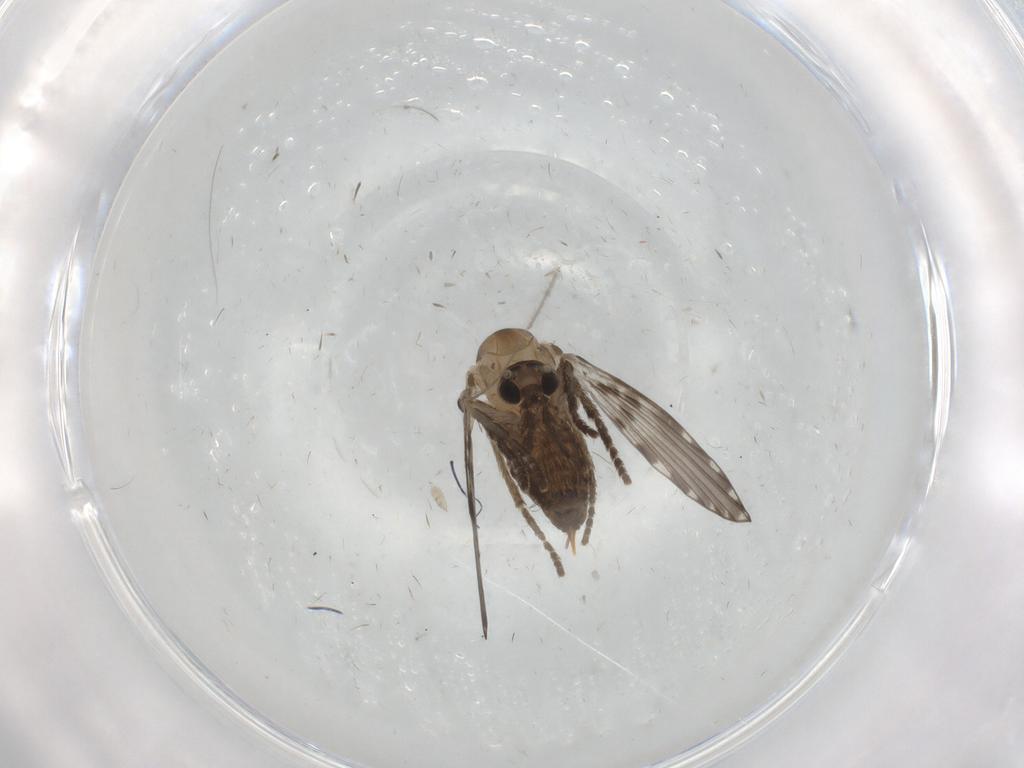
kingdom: Animalia
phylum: Arthropoda
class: Insecta
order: Diptera
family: Psychodidae
